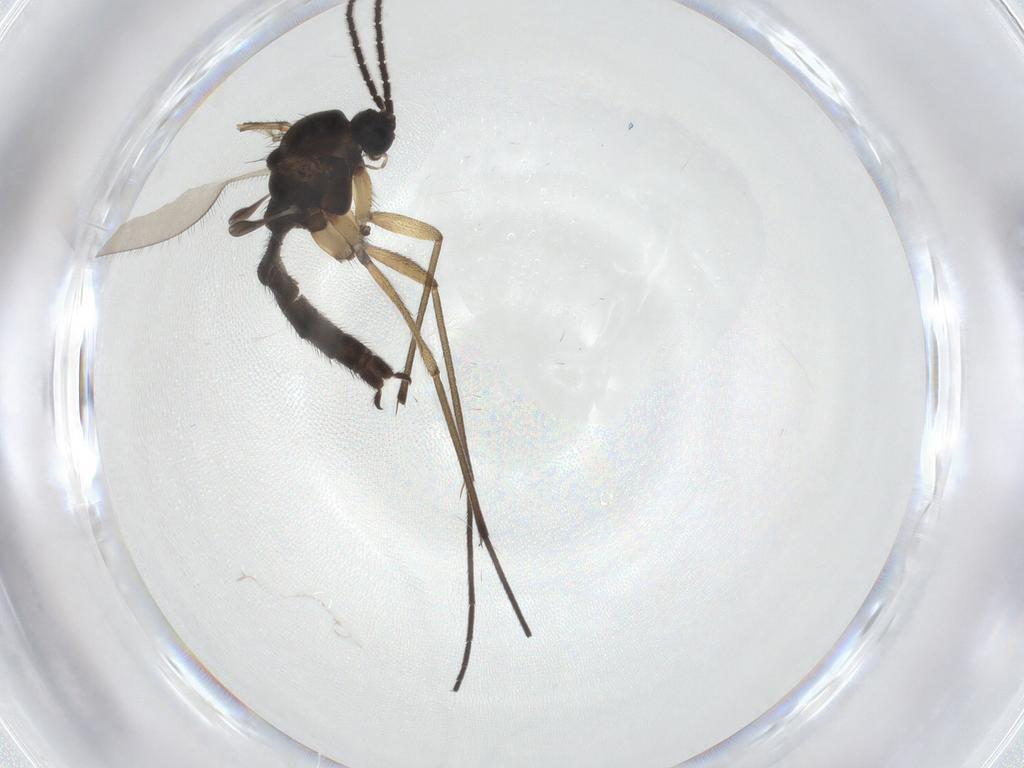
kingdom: Animalia
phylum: Arthropoda
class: Insecta
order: Diptera
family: Sciaridae
